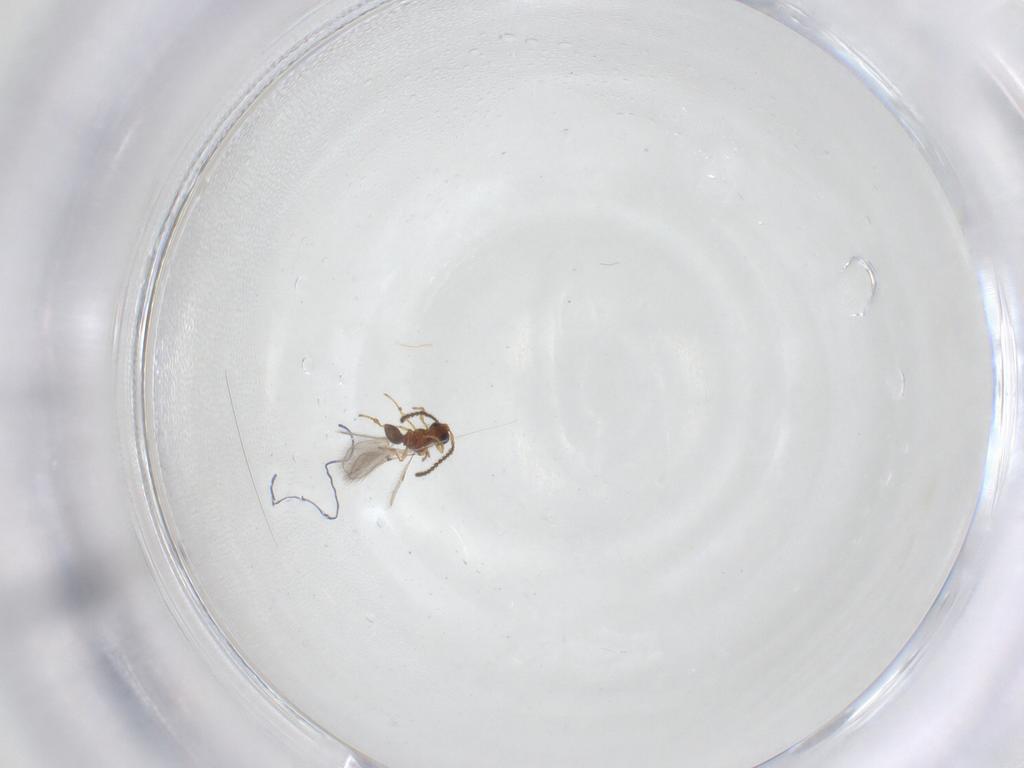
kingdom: Animalia
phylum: Arthropoda
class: Insecta
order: Hymenoptera
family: Diapriidae
